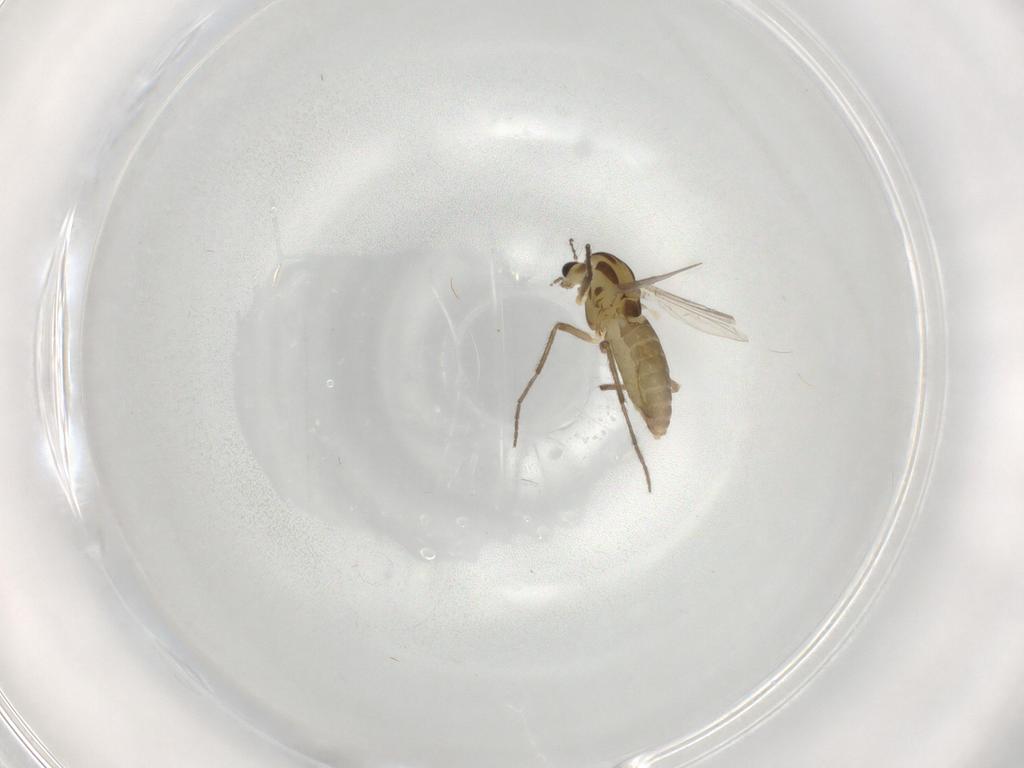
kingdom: Animalia
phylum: Arthropoda
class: Insecta
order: Diptera
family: Chironomidae
